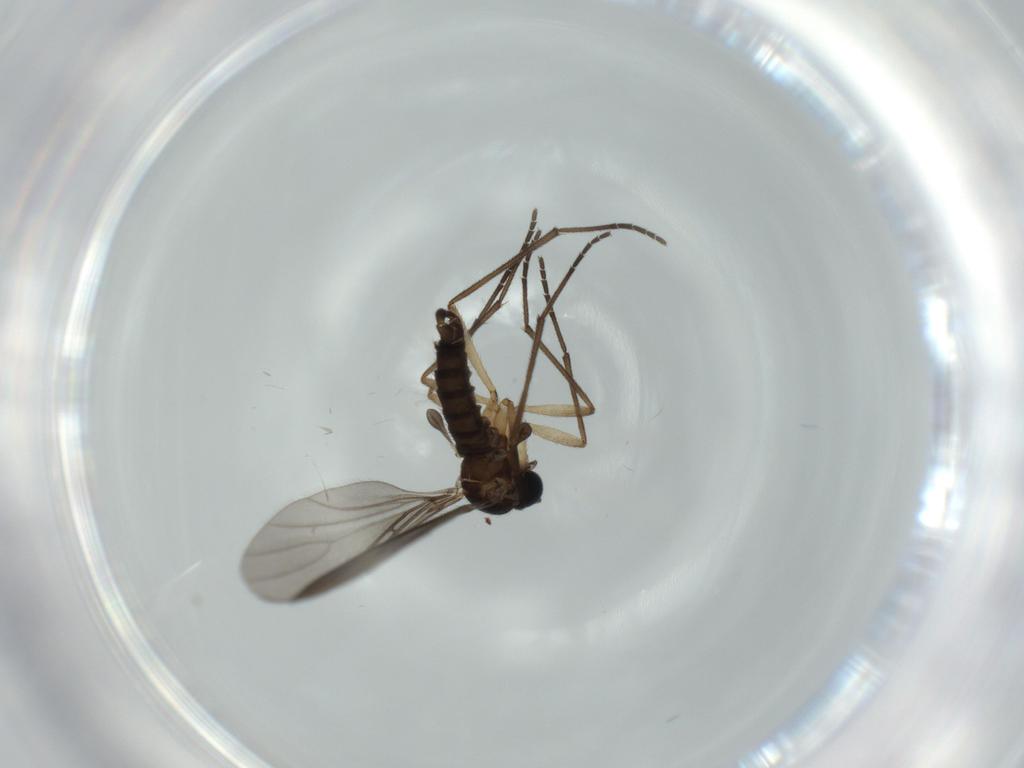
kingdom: Animalia
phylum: Arthropoda
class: Insecta
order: Diptera
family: Sciaridae
